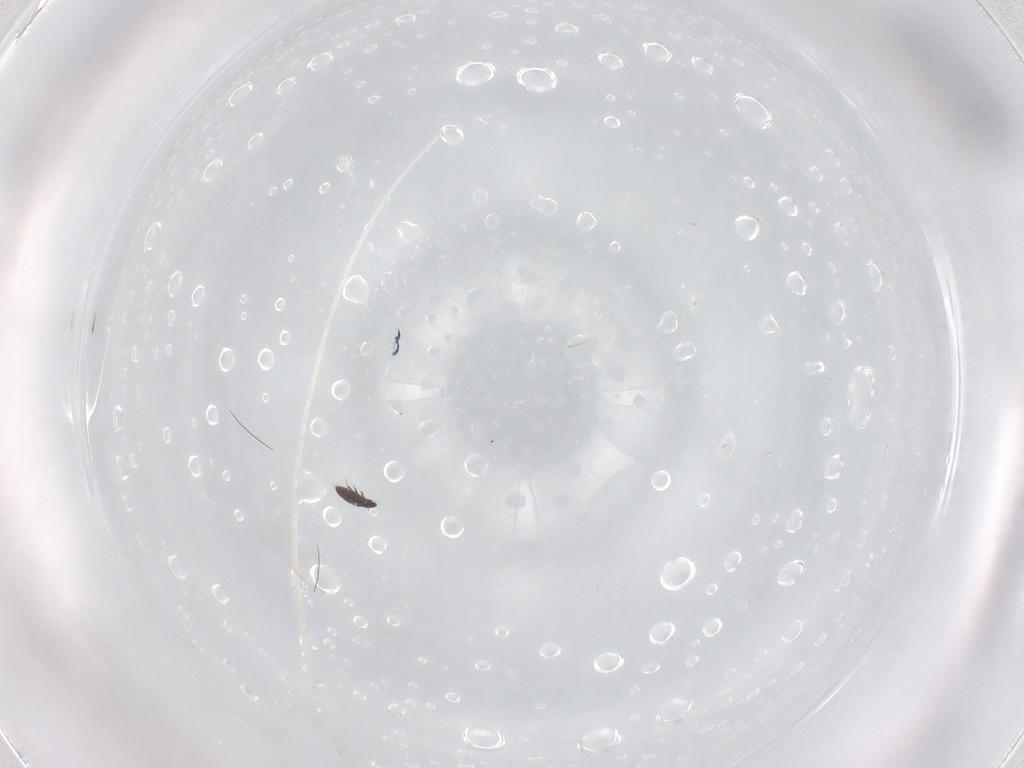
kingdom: Animalia
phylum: Arthropoda
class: Insecta
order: Coleoptera
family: Staphylinidae
